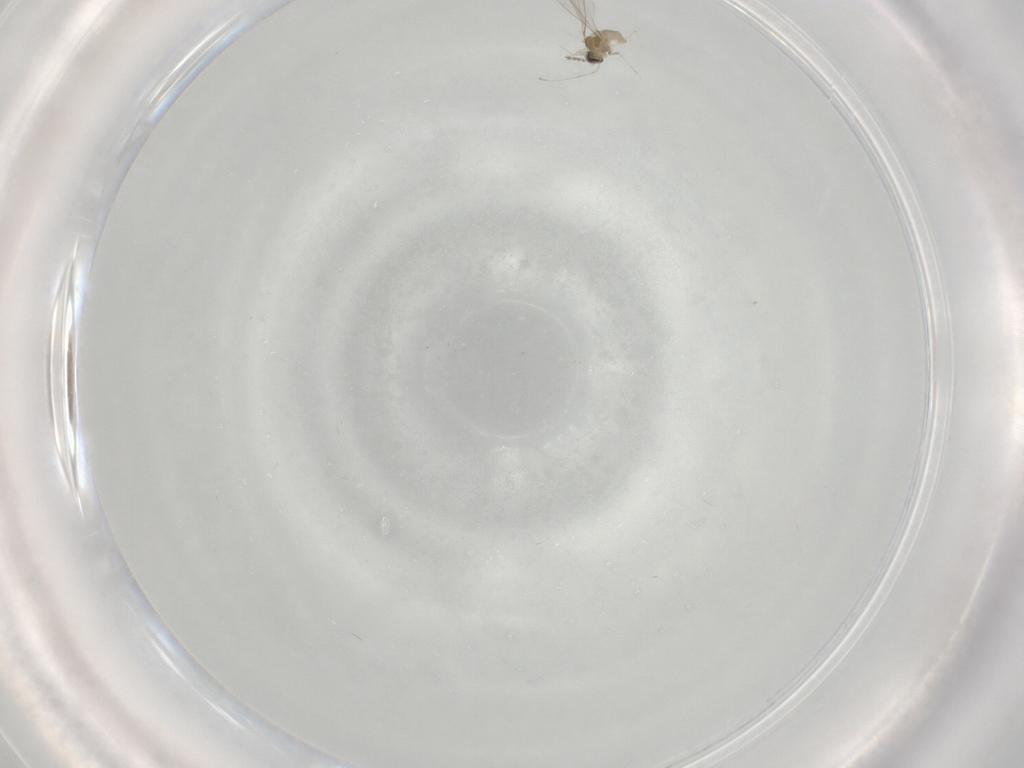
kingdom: Animalia
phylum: Arthropoda
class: Insecta
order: Diptera
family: Cecidomyiidae
